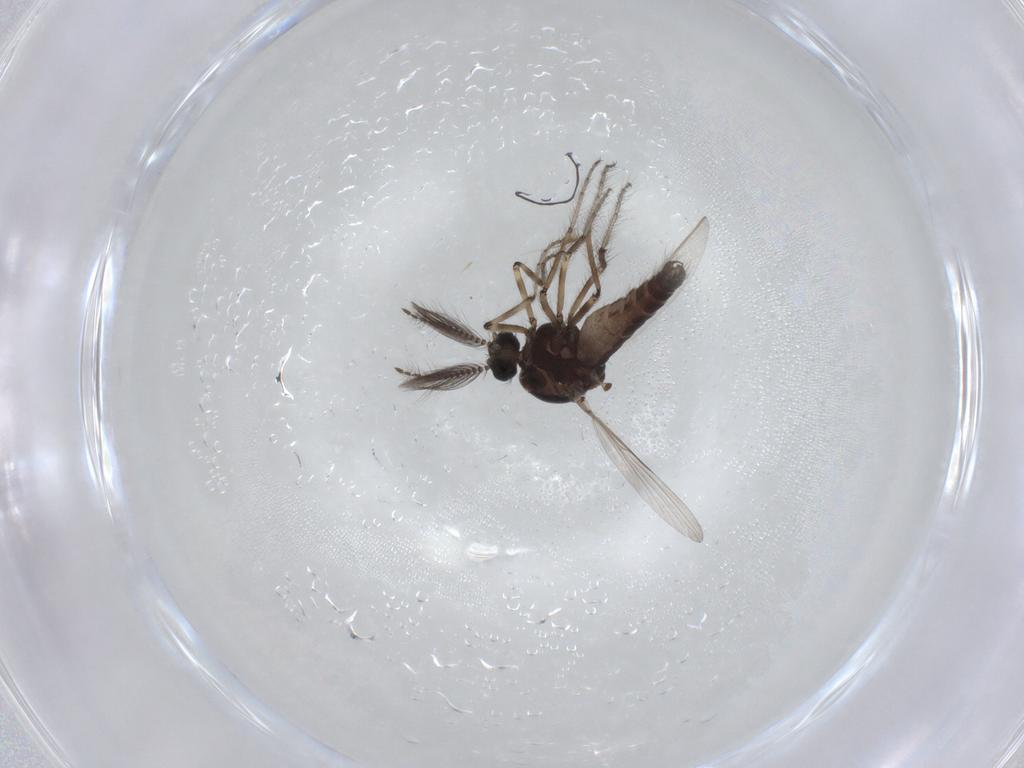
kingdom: Animalia
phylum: Arthropoda
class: Insecta
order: Diptera
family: Ceratopogonidae
